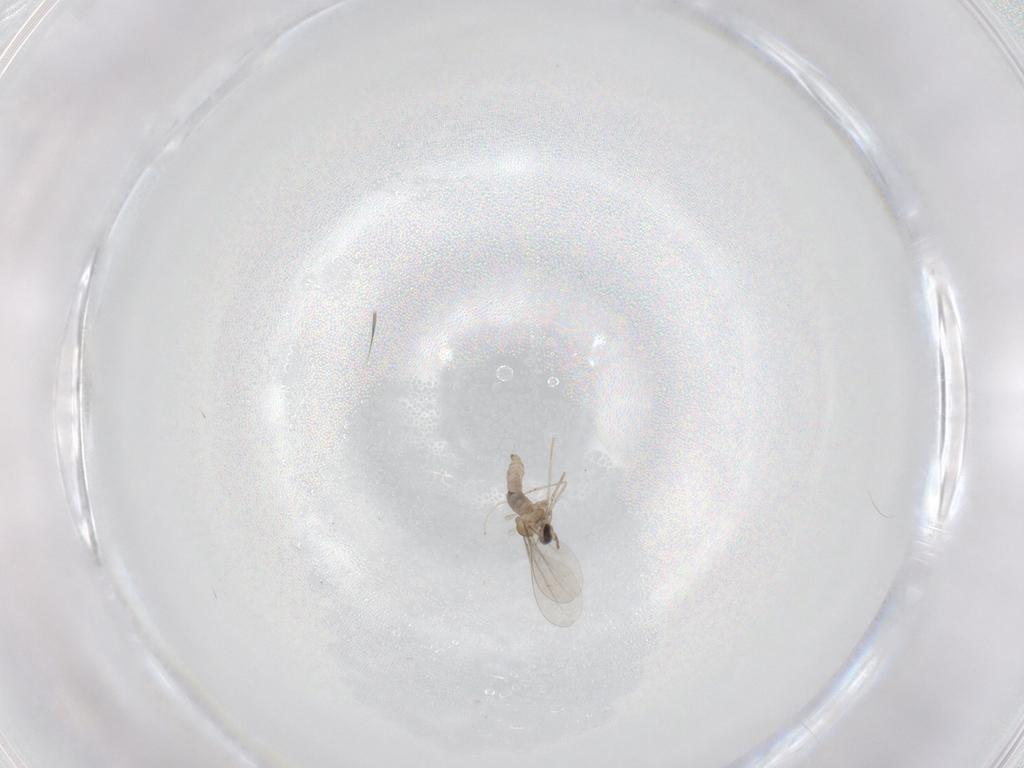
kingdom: Animalia
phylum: Arthropoda
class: Insecta
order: Diptera
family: Cecidomyiidae
